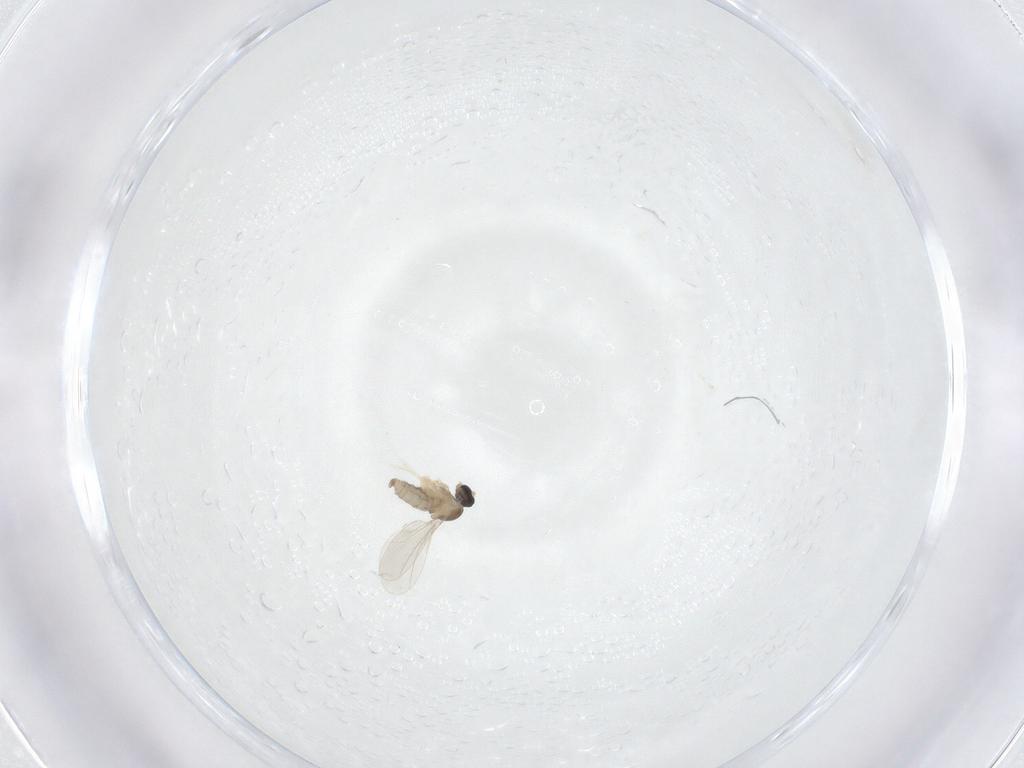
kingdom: Animalia
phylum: Arthropoda
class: Insecta
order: Diptera
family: Cecidomyiidae
